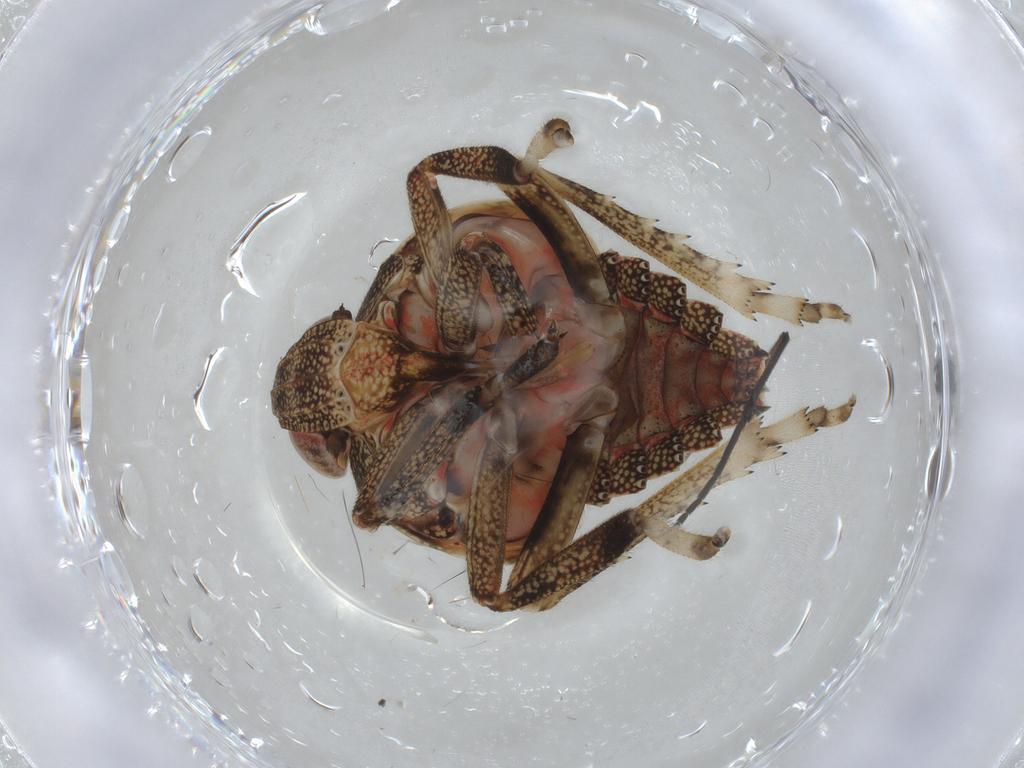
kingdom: Animalia
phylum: Arthropoda
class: Insecta
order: Hemiptera
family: Tropiduchidae
